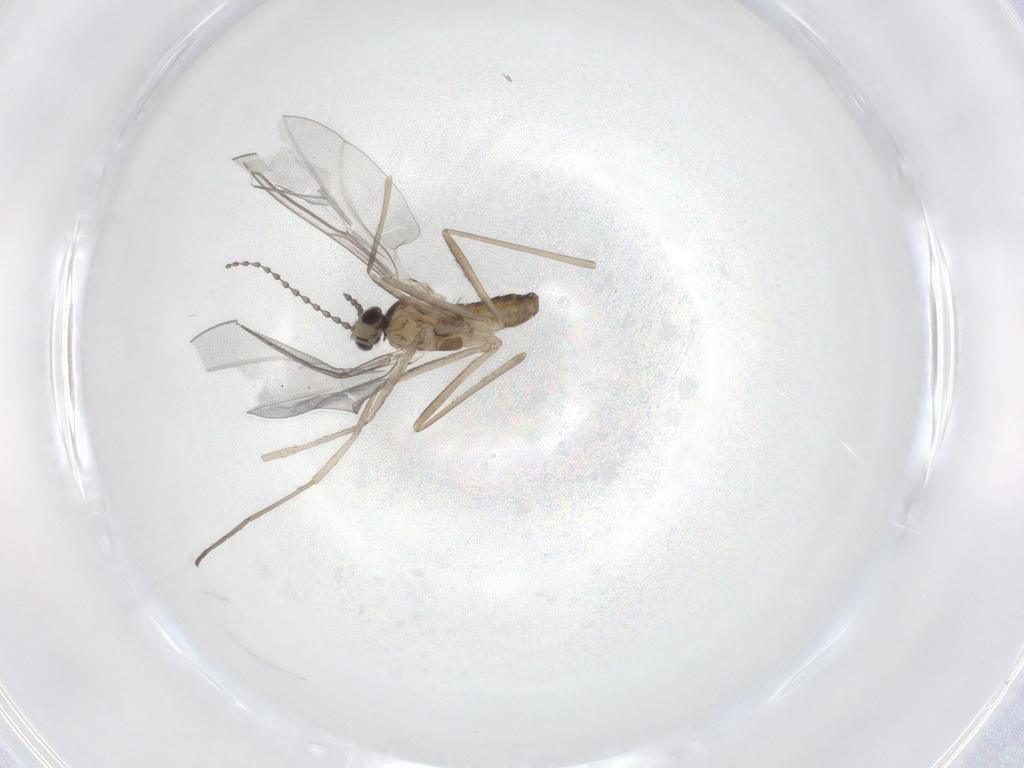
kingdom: Animalia
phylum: Arthropoda
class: Insecta
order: Diptera
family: Cecidomyiidae
